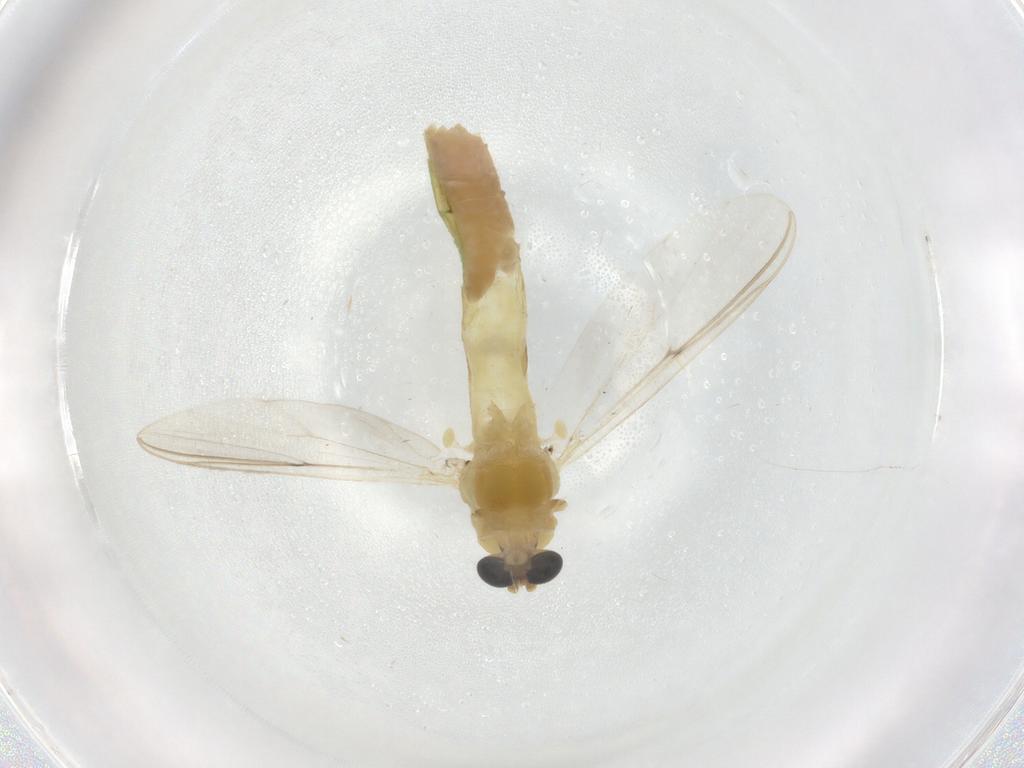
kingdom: Animalia
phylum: Arthropoda
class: Insecta
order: Diptera
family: Chironomidae
